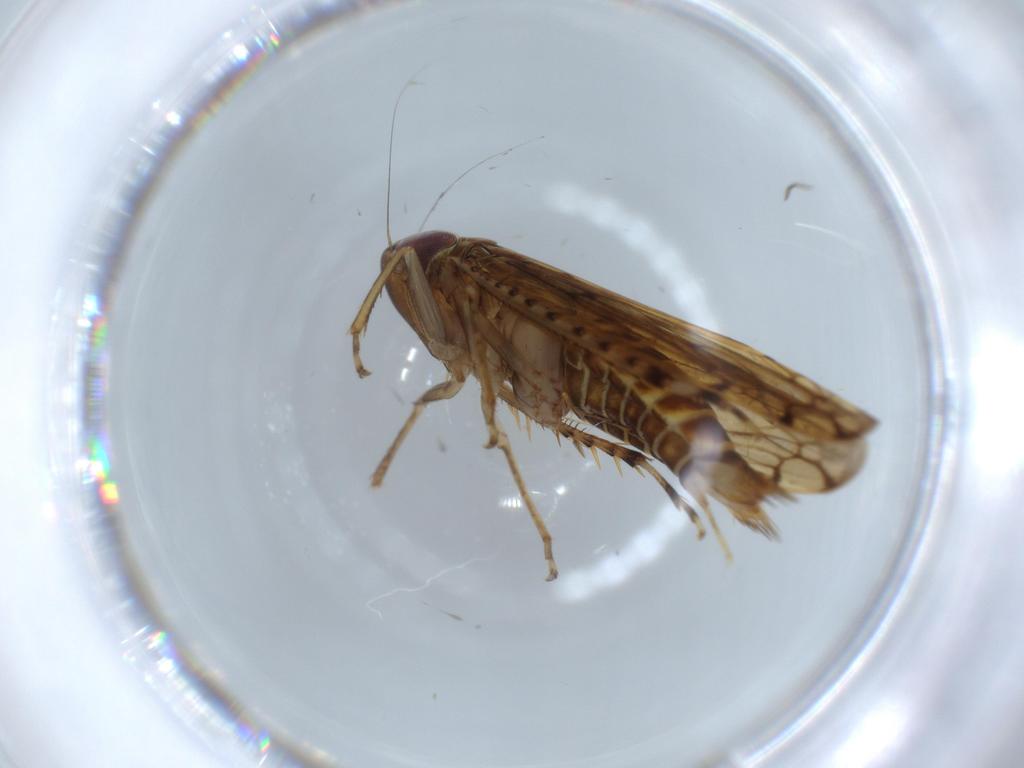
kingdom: Animalia
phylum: Arthropoda
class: Insecta
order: Hemiptera
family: Cicadellidae
